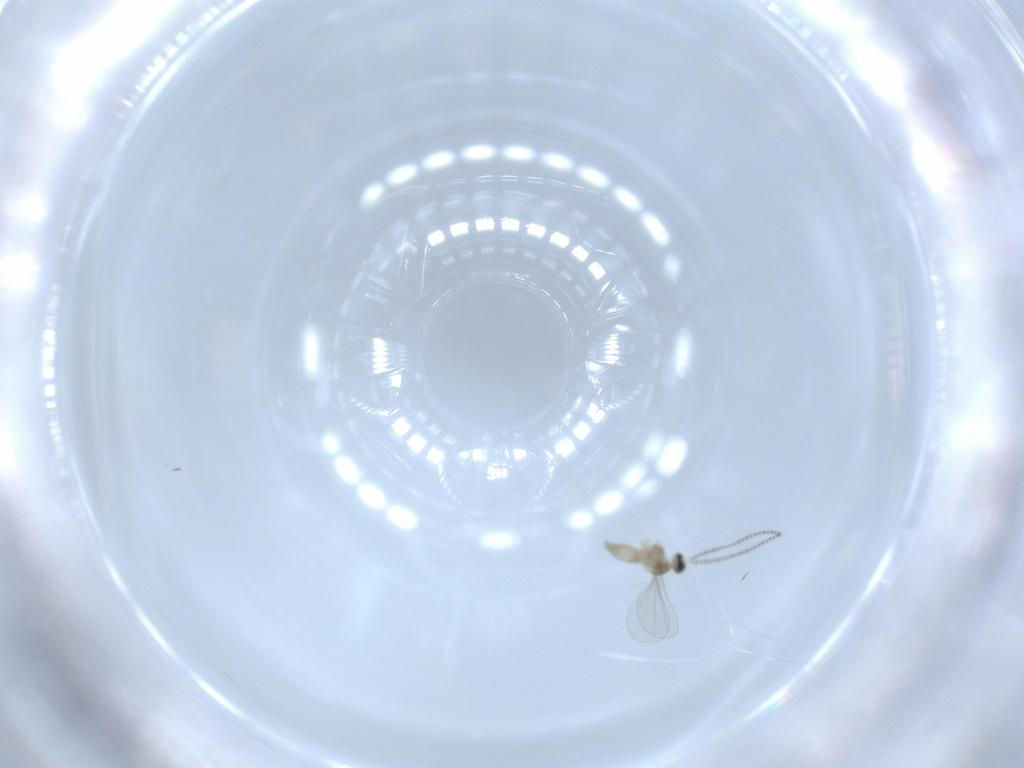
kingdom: Animalia
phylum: Arthropoda
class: Insecta
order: Diptera
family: Cecidomyiidae
